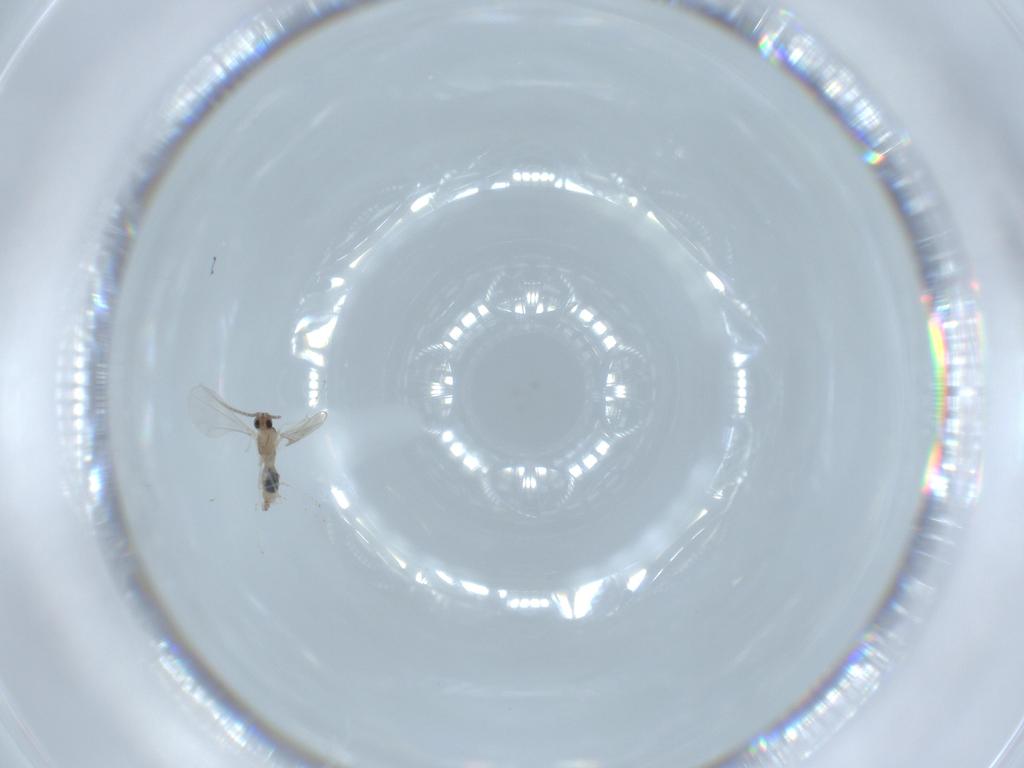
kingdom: Animalia
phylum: Arthropoda
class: Insecta
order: Diptera
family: Cecidomyiidae
